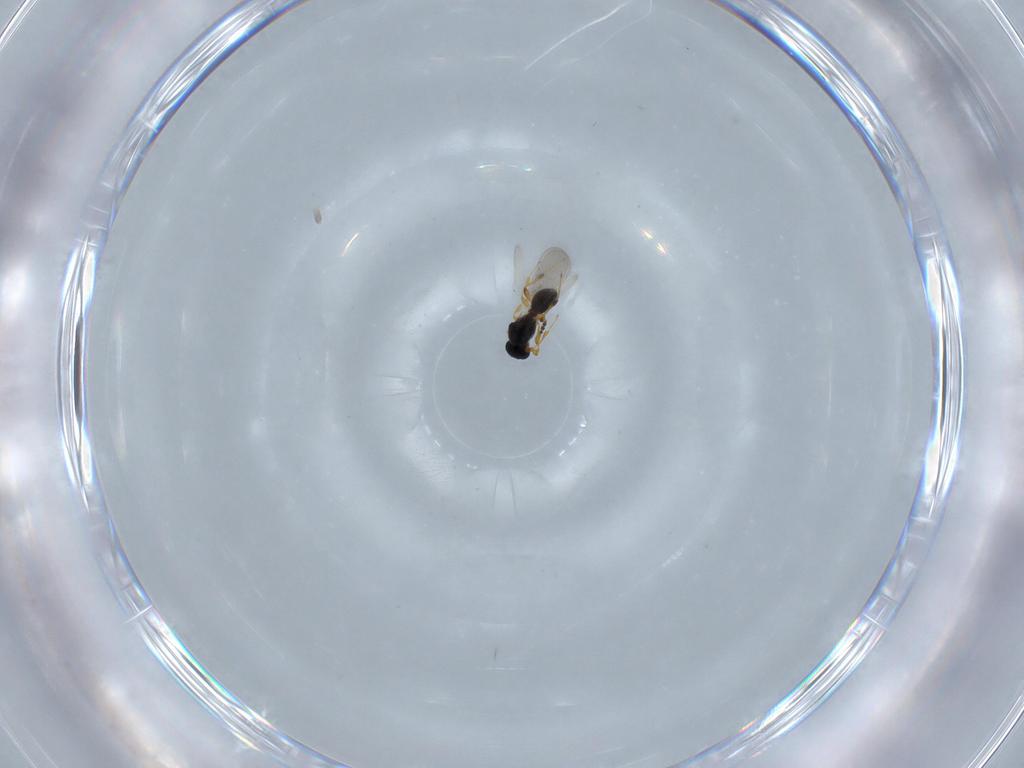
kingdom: Animalia
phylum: Arthropoda
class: Insecta
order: Hymenoptera
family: Platygastridae
